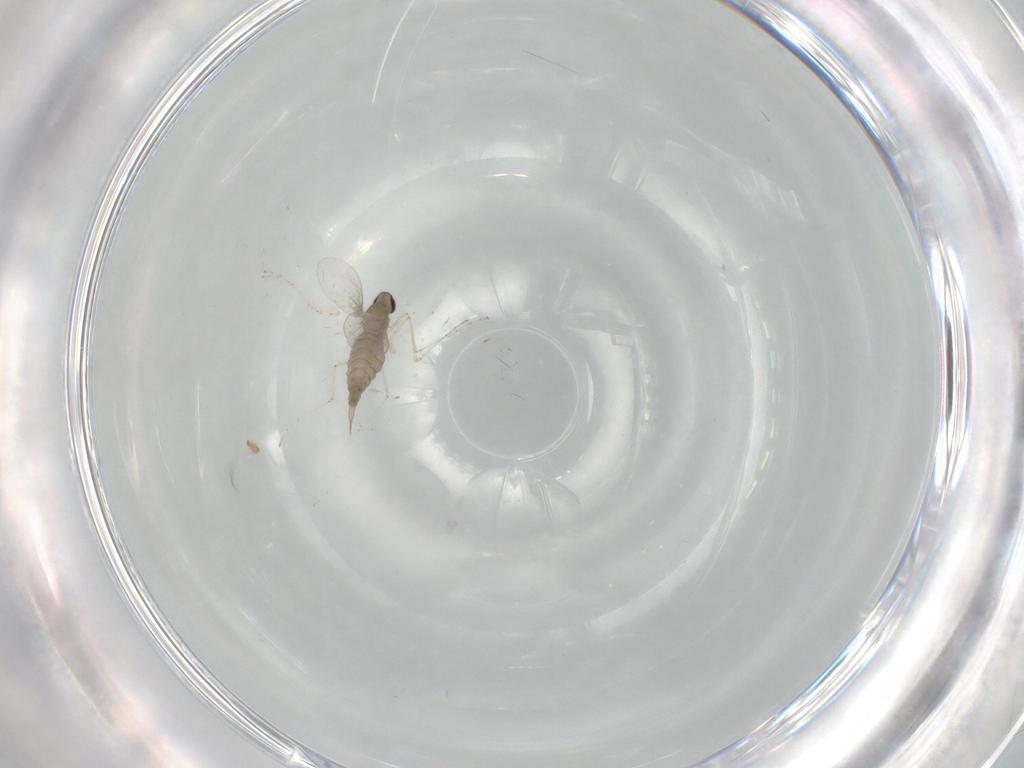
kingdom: Animalia
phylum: Arthropoda
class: Insecta
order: Diptera
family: Cecidomyiidae
